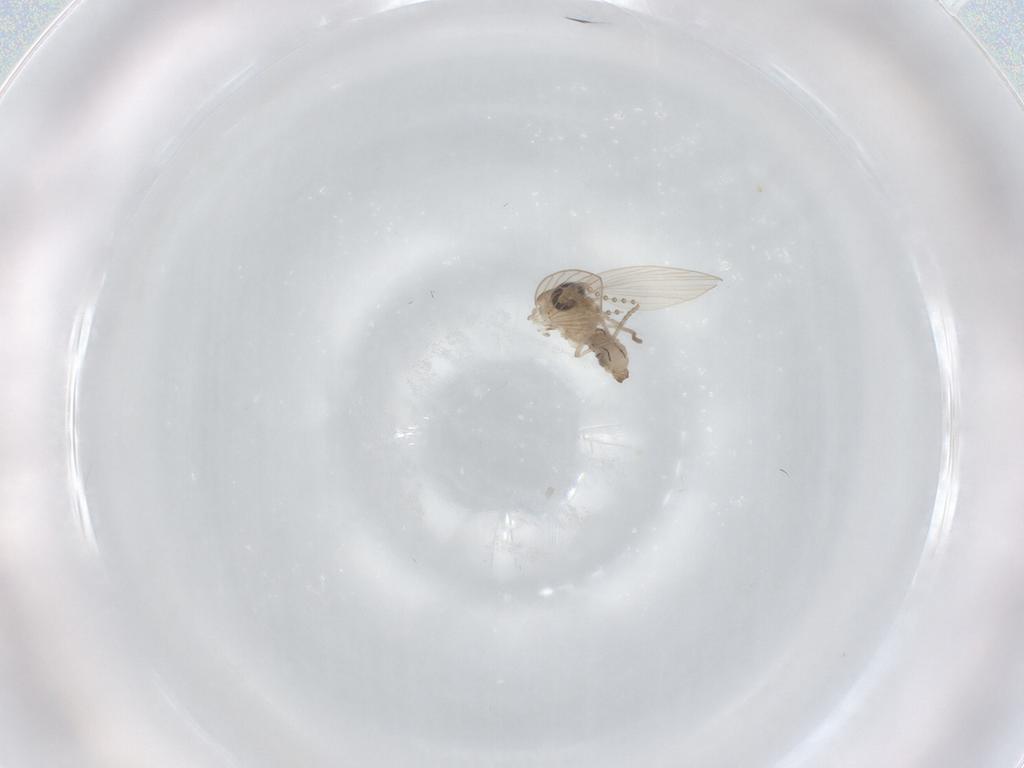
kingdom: Animalia
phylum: Arthropoda
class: Insecta
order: Diptera
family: Psychodidae
